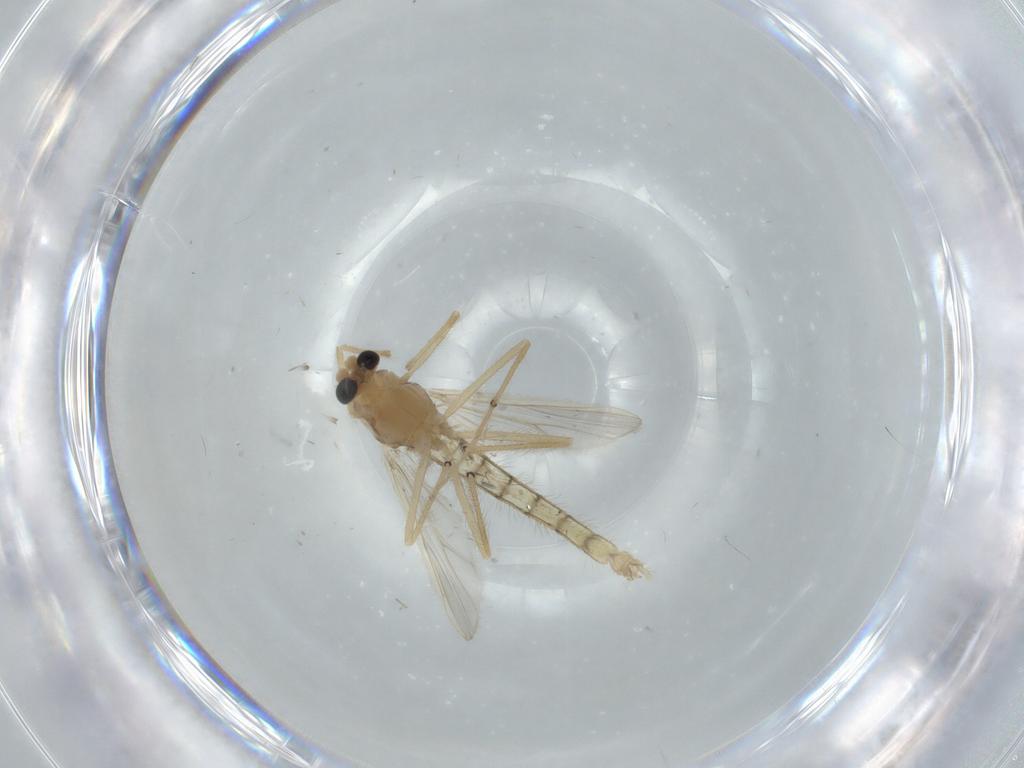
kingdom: Animalia
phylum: Arthropoda
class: Insecta
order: Diptera
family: Chironomidae
